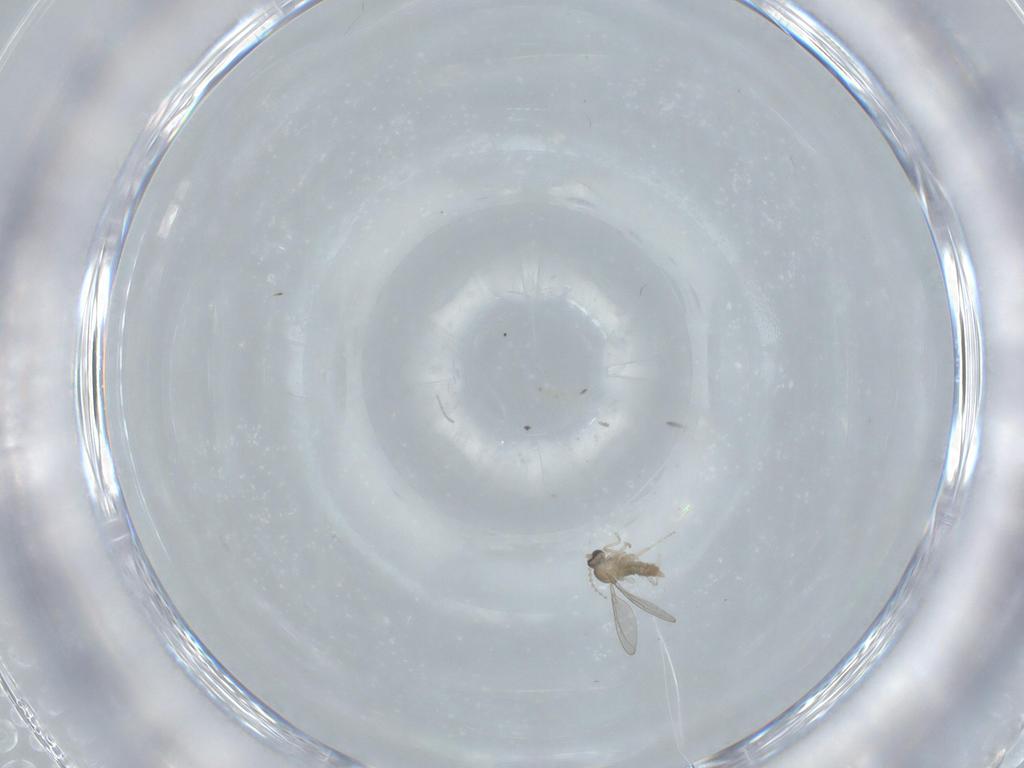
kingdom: Animalia
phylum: Arthropoda
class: Insecta
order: Diptera
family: Cecidomyiidae
